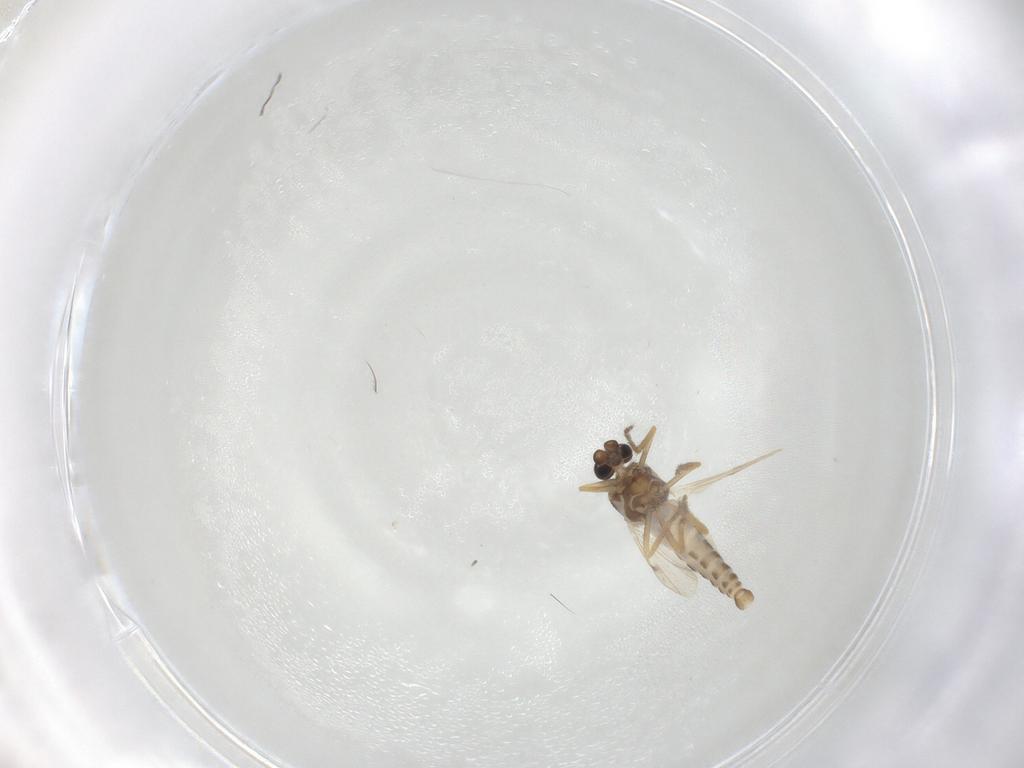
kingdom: Animalia
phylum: Arthropoda
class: Insecta
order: Diptera
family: Ceratopogonidae
